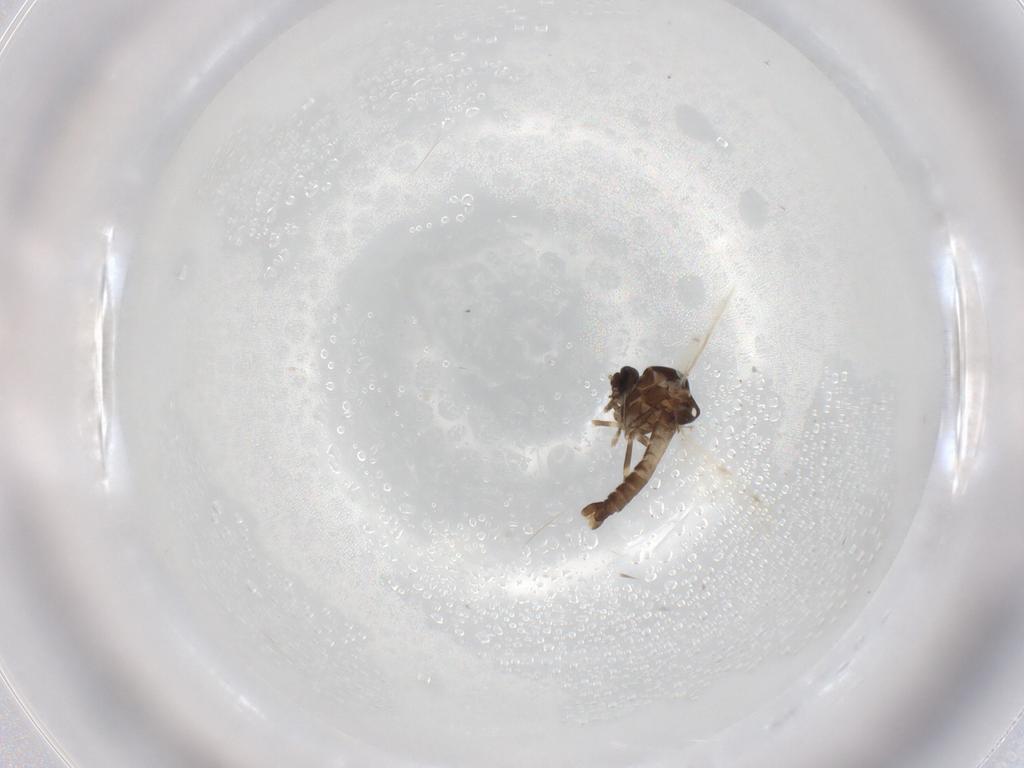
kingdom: Animalia
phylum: Arthropoda
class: Insecta
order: Diptera
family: Ceratopogonidae
